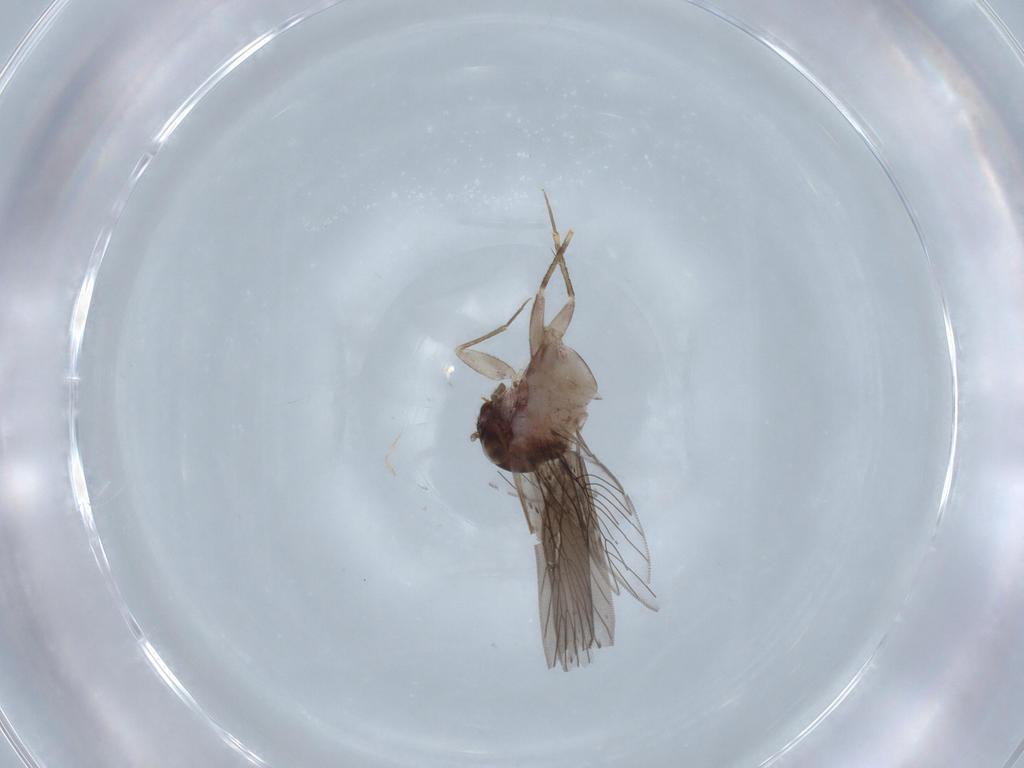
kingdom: Animalia
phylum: Arthropoda
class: Insecta
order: Psocodea
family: Lepidopsocidae
